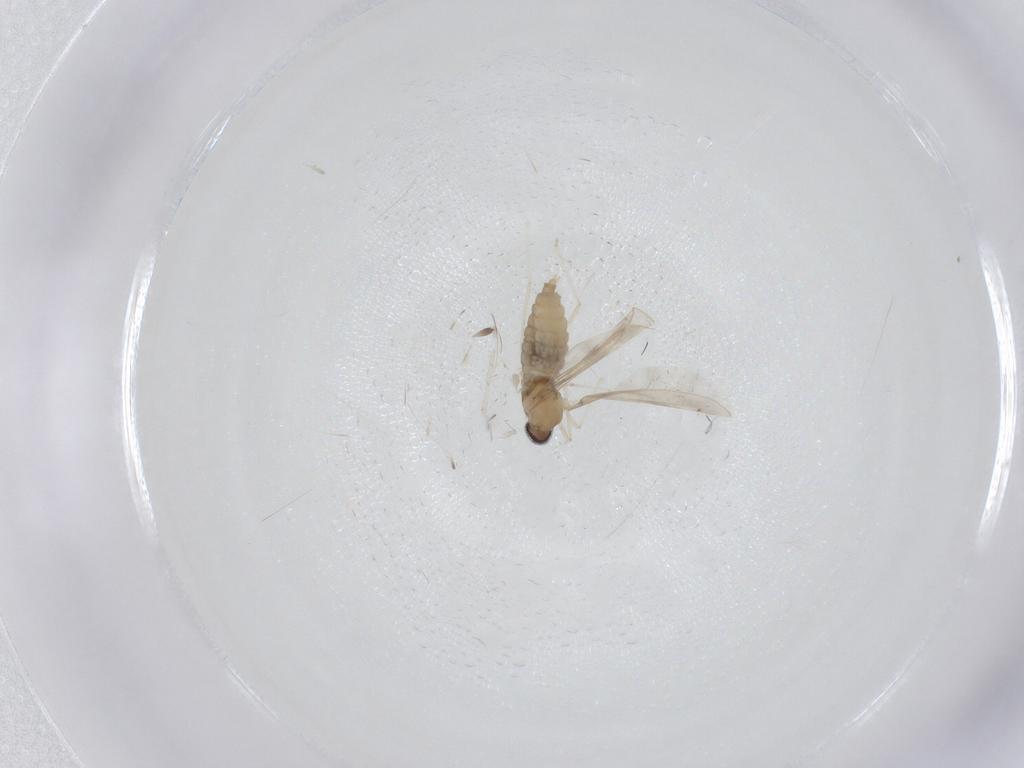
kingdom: Animalia
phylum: Arthropoda
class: Insecta
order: Diptera
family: Cecidomyiidae
